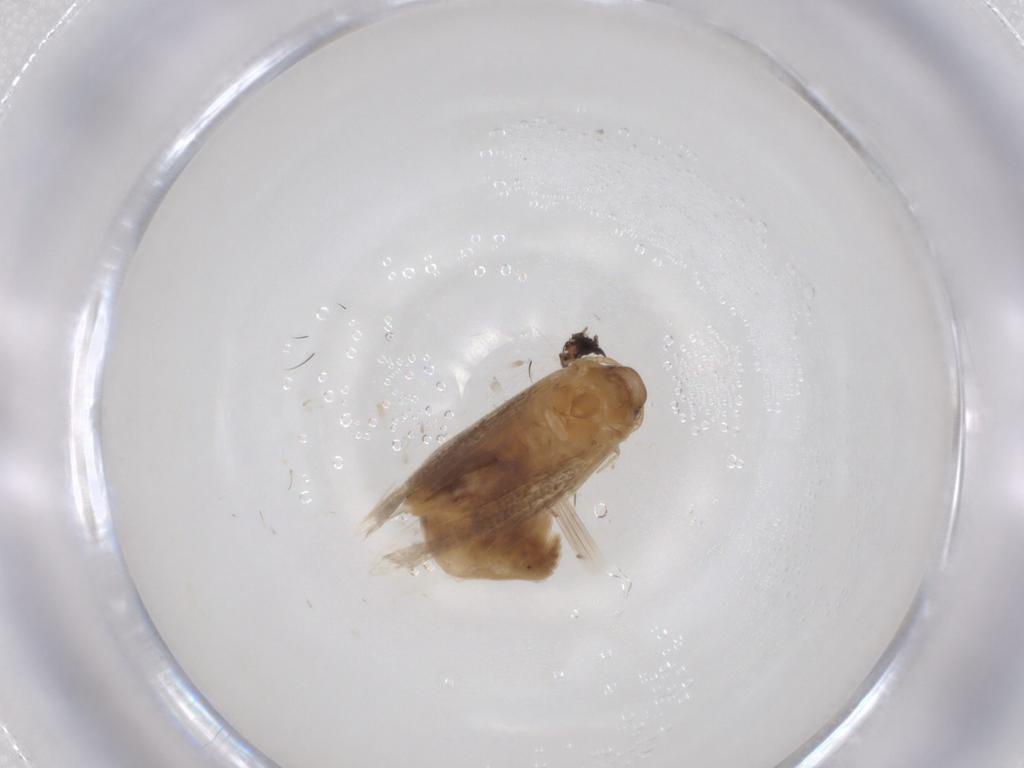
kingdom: Animalia
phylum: Arthropoda
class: Insecta
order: Lepidoptera
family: Gelechiidae
